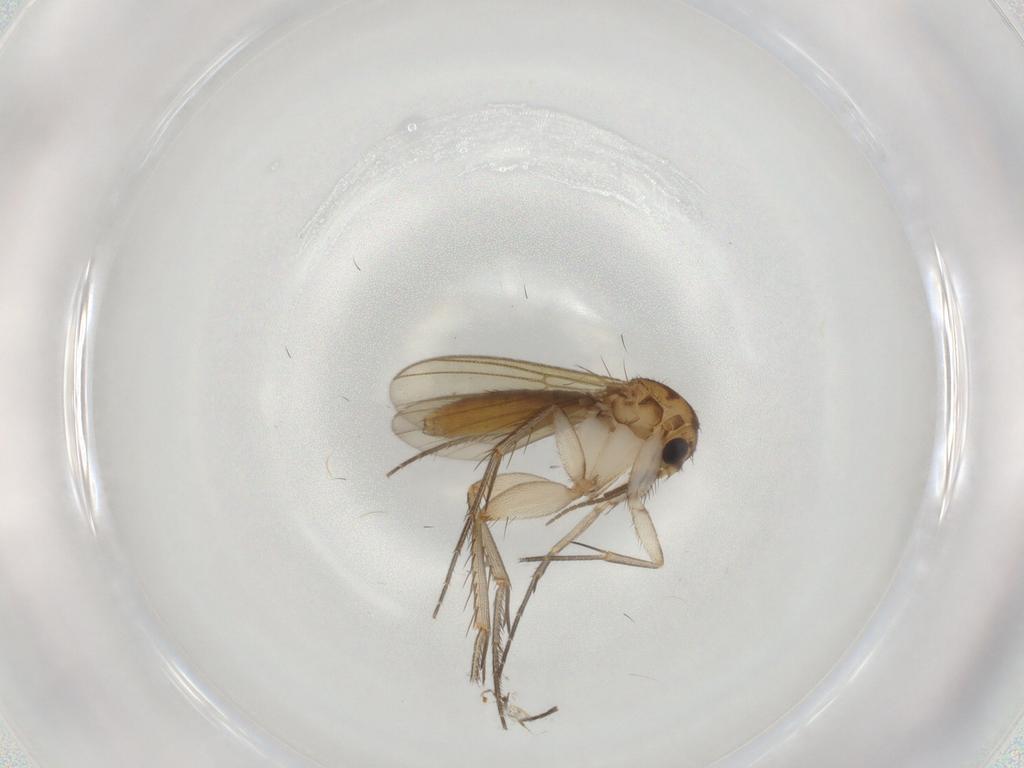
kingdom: Animalia
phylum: Arthropoda
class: Insecta
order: Diptera
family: Mycetophilidae
